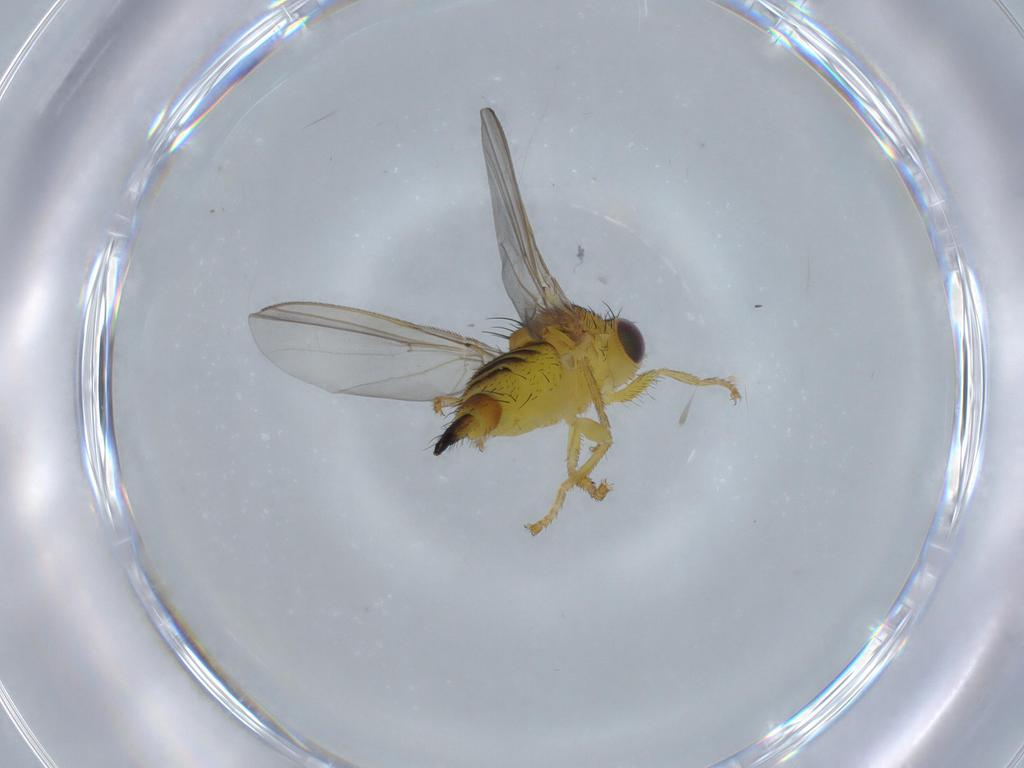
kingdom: Animalia
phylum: Arthropoda
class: Insecta
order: Diptera
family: Fergusoninidae
